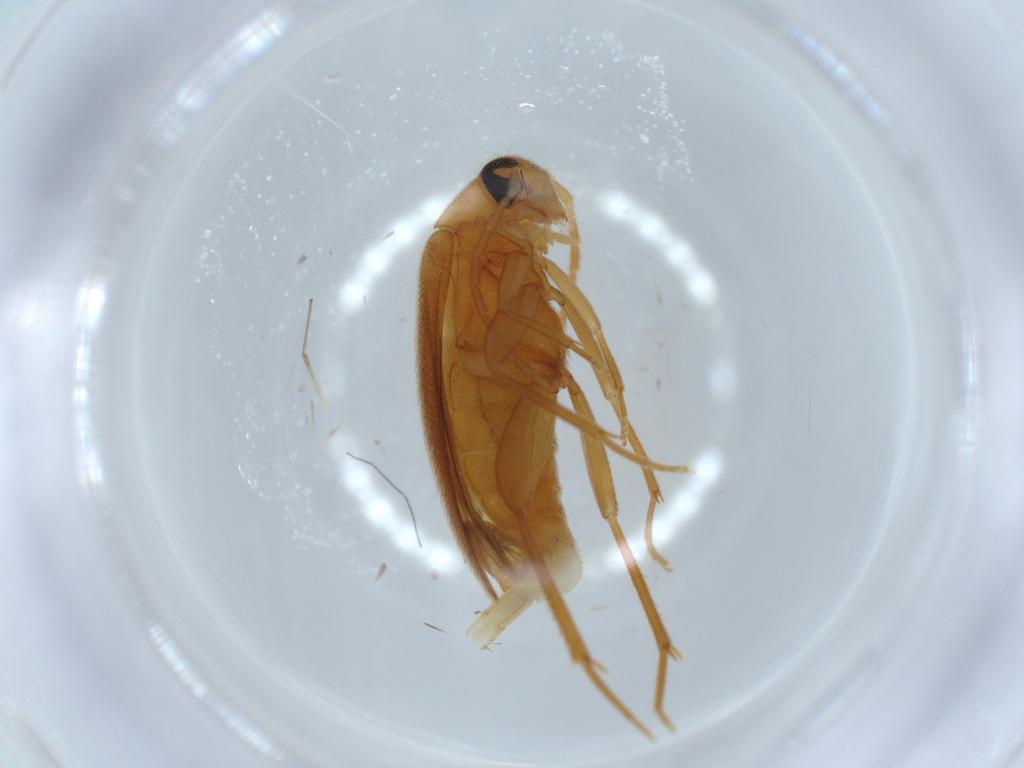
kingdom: Animalia
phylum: Arthropoda
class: Insecta
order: Coleoptera
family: Scraptiidae
